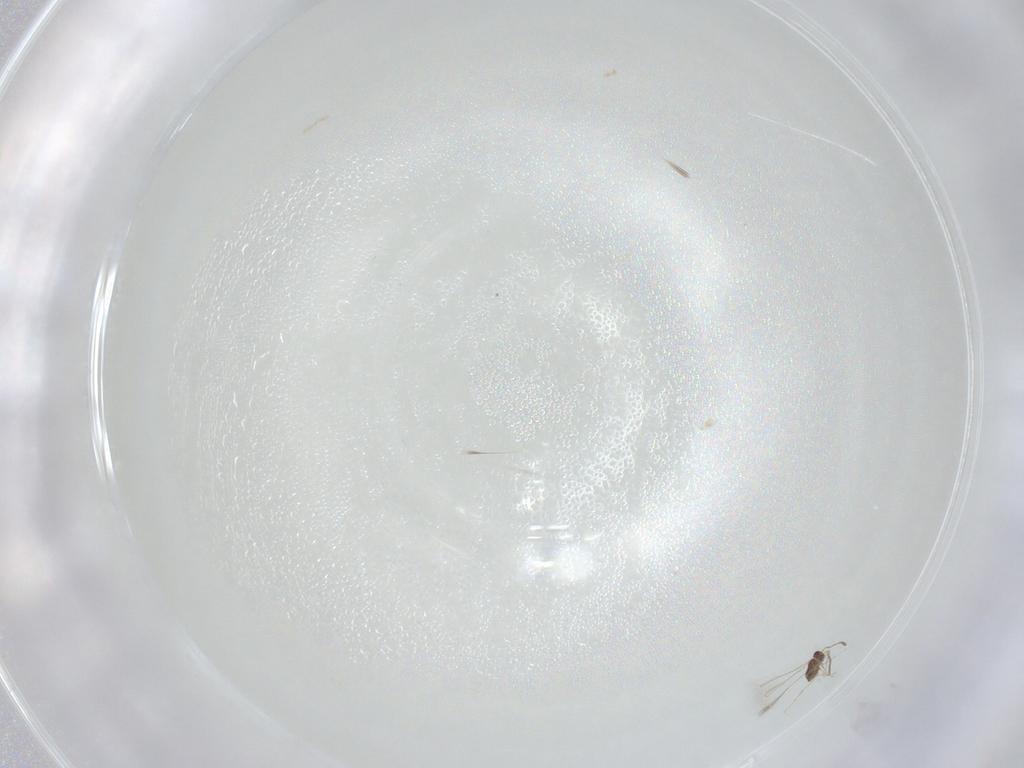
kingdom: Animalia
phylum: Arthropoda
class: Insecta
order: Hymenoptera
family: Mymaridae
